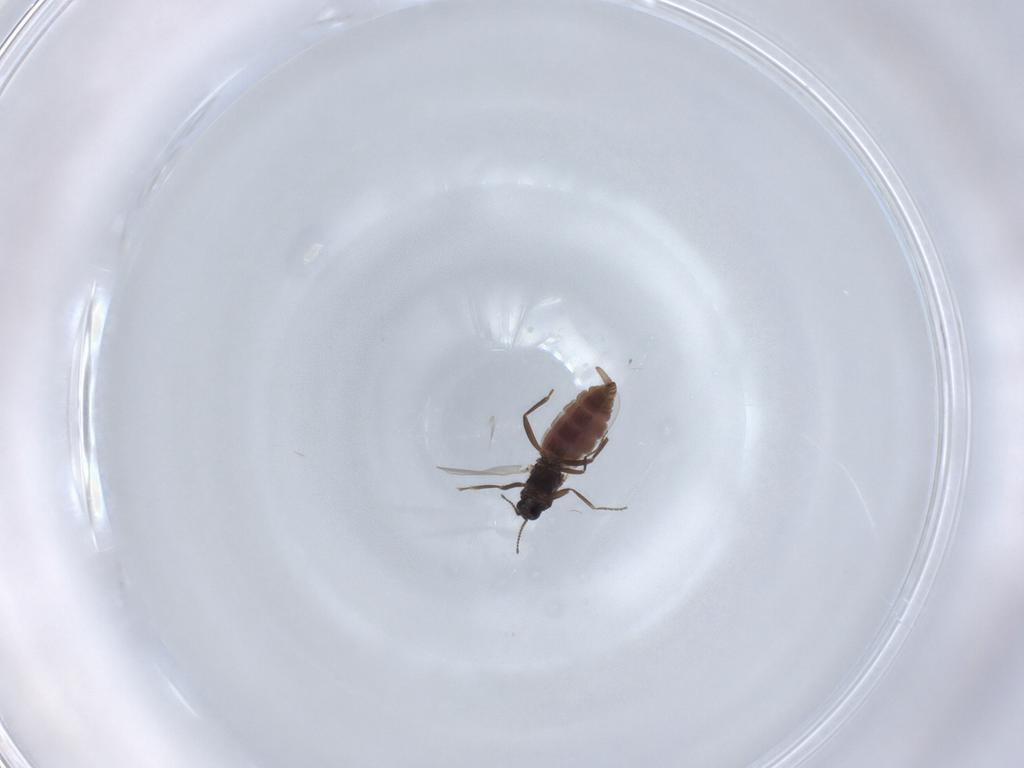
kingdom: Animalia
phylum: Arthropoda
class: Insecta
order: Diptera
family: Ceratopogonidae
